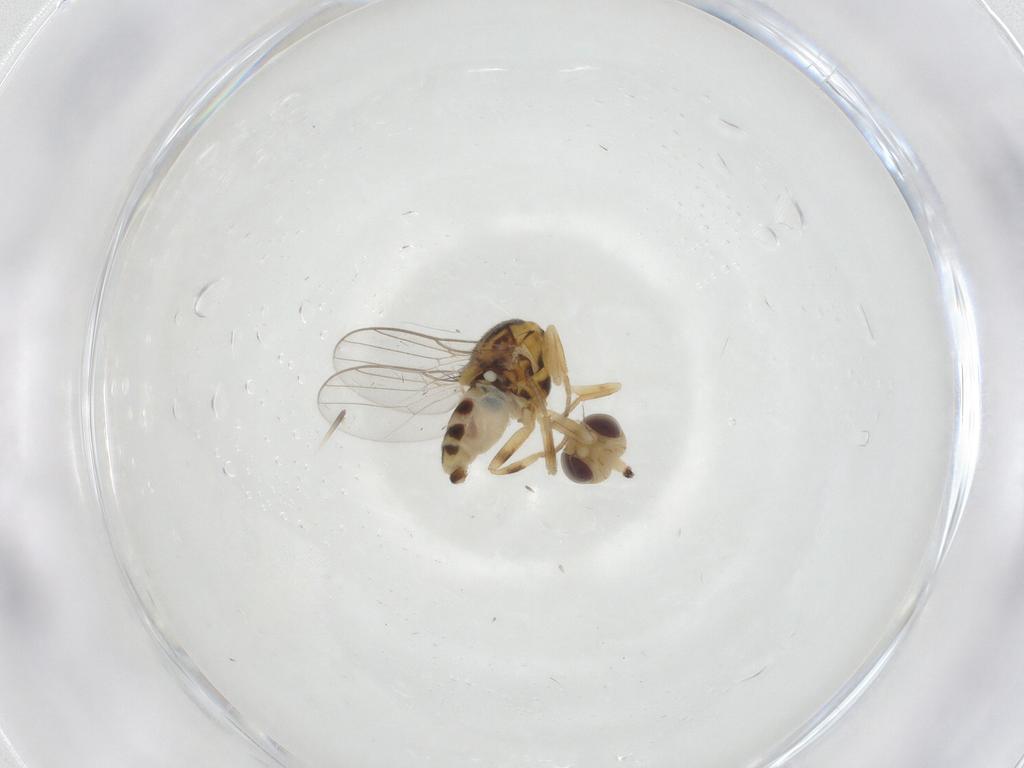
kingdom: Animalia
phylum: Arthropoda
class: Insecta
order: Diptera
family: Chloropidae
